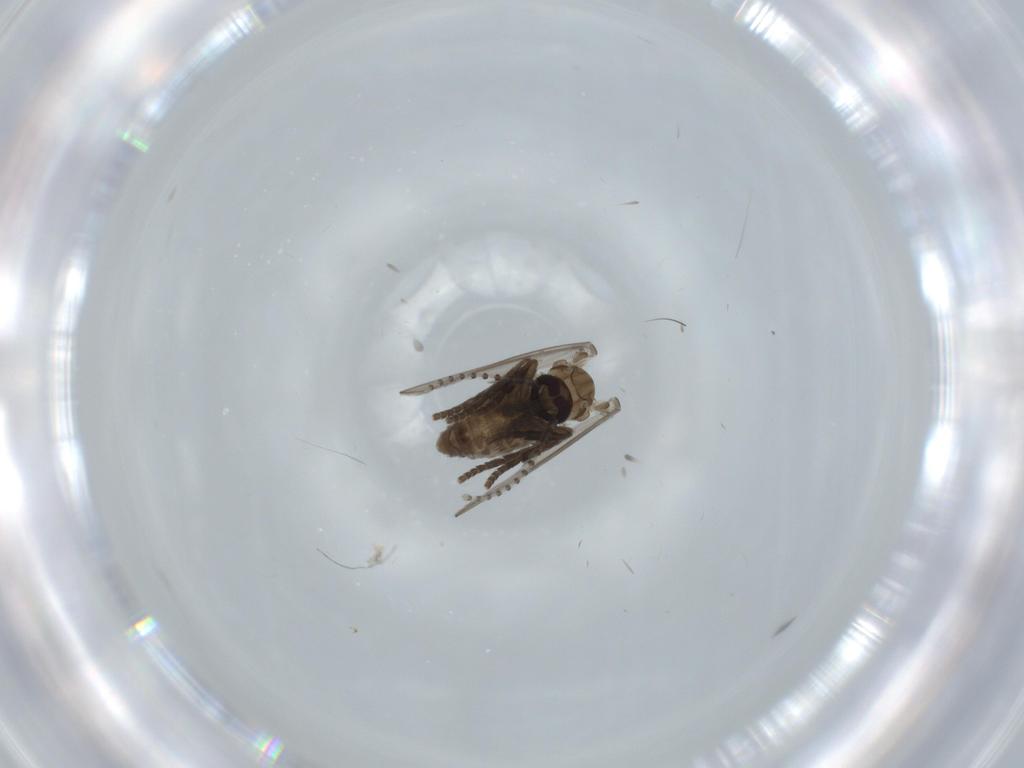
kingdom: Animalia
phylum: Arthropoda
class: Insecta
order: Diptera
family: Psychodidae
